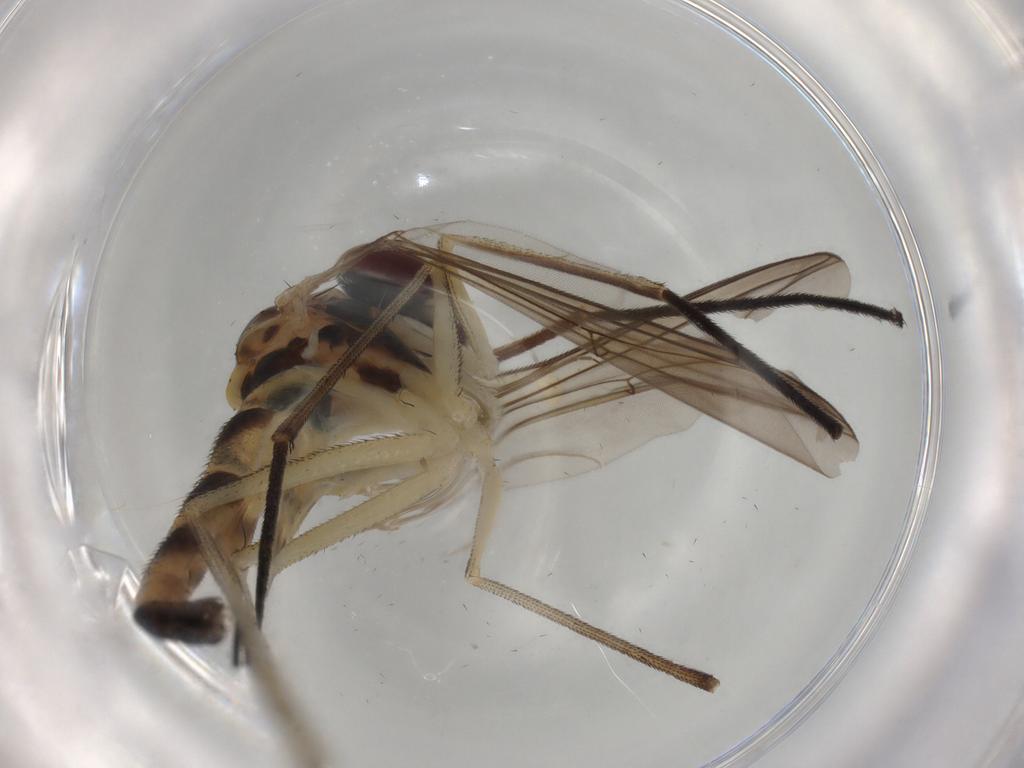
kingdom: Animalia
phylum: Arthropoda
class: Insecta
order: Diptera
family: Chironomidae
